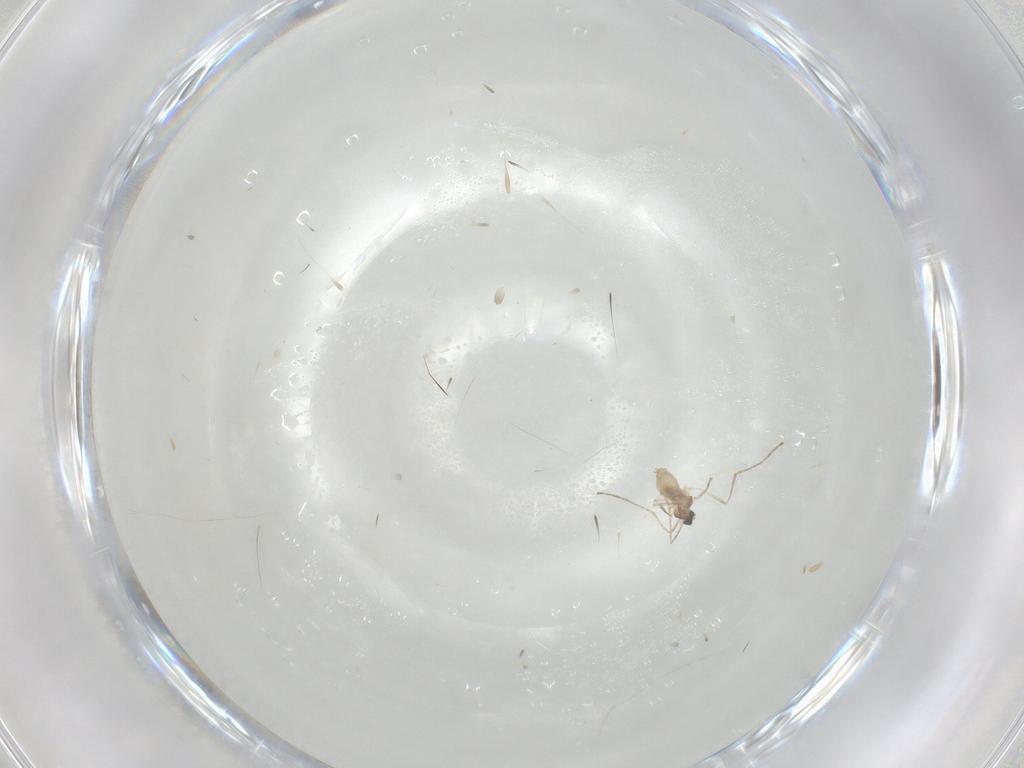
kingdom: Animalia
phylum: Arthropoda
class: Insecta
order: Diptera
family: Cecidomyiidae
